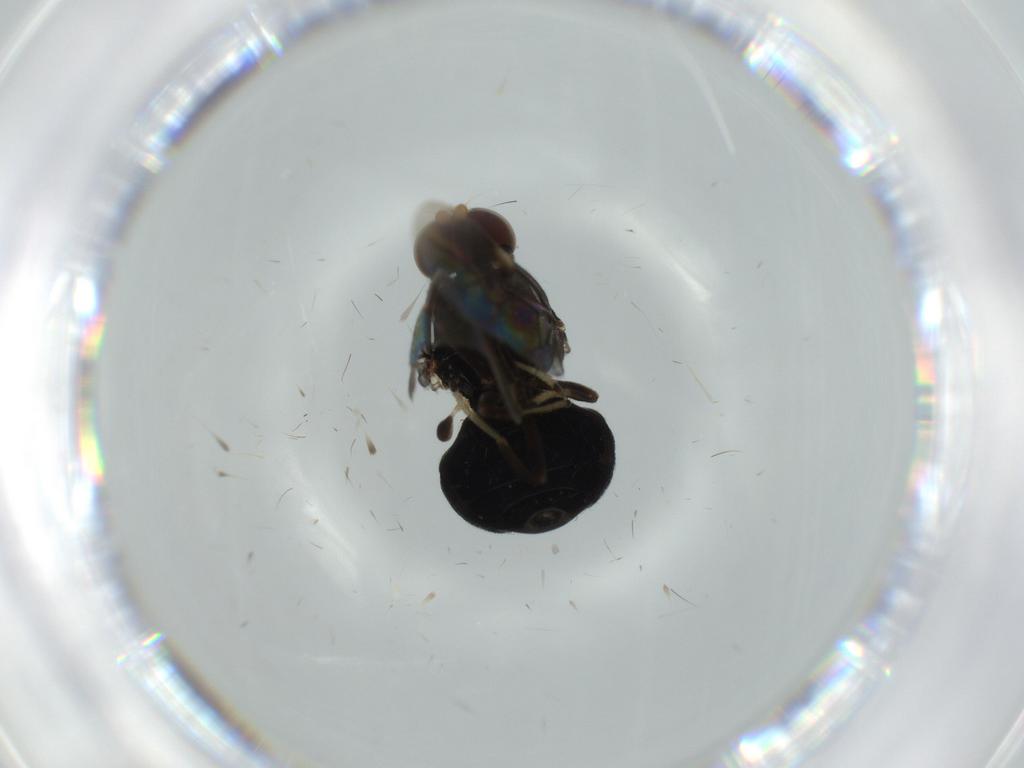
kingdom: Animalia
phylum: Arthropoda
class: Insecta
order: Diptera
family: Stratiomyidae
